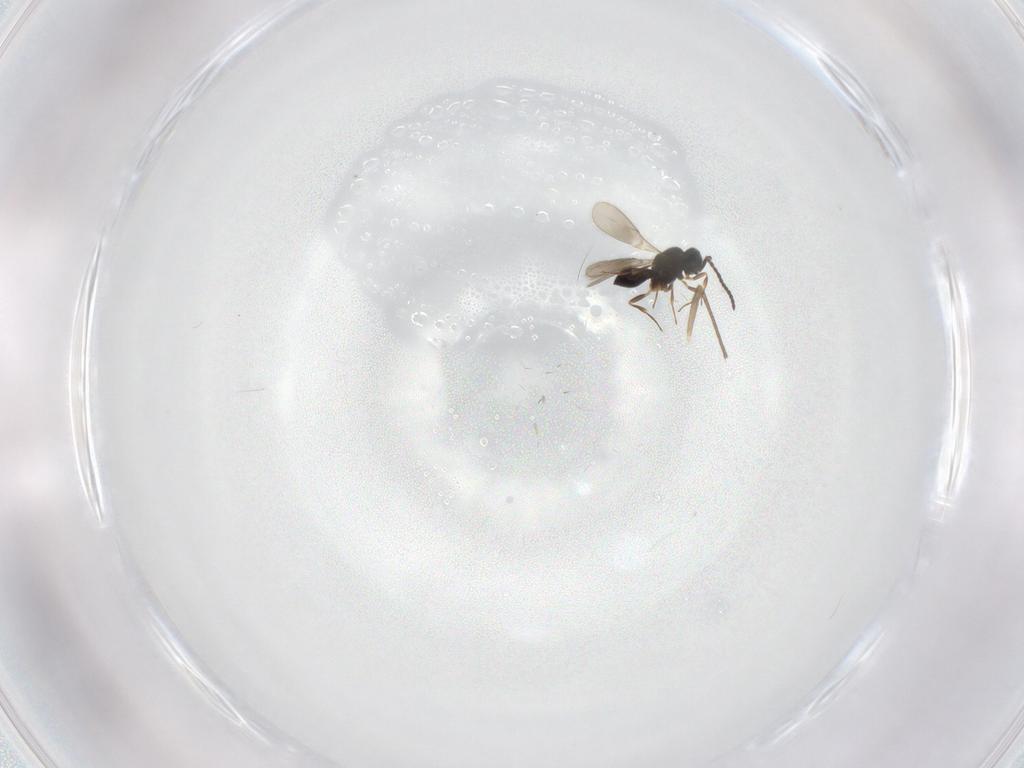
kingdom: Animalia
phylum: Arthropoda
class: Insecta
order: Hymenoptera
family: Scelionidae
